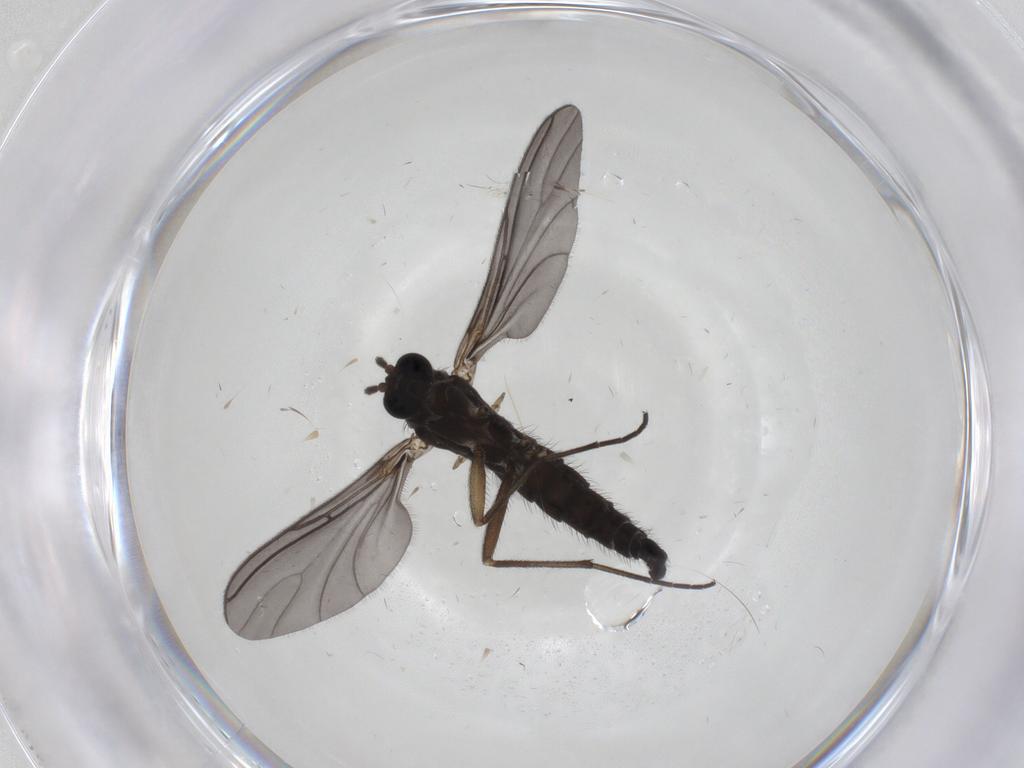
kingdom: Animalia
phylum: Arthropoda
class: Insecta
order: Diptera
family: Sciaridae
